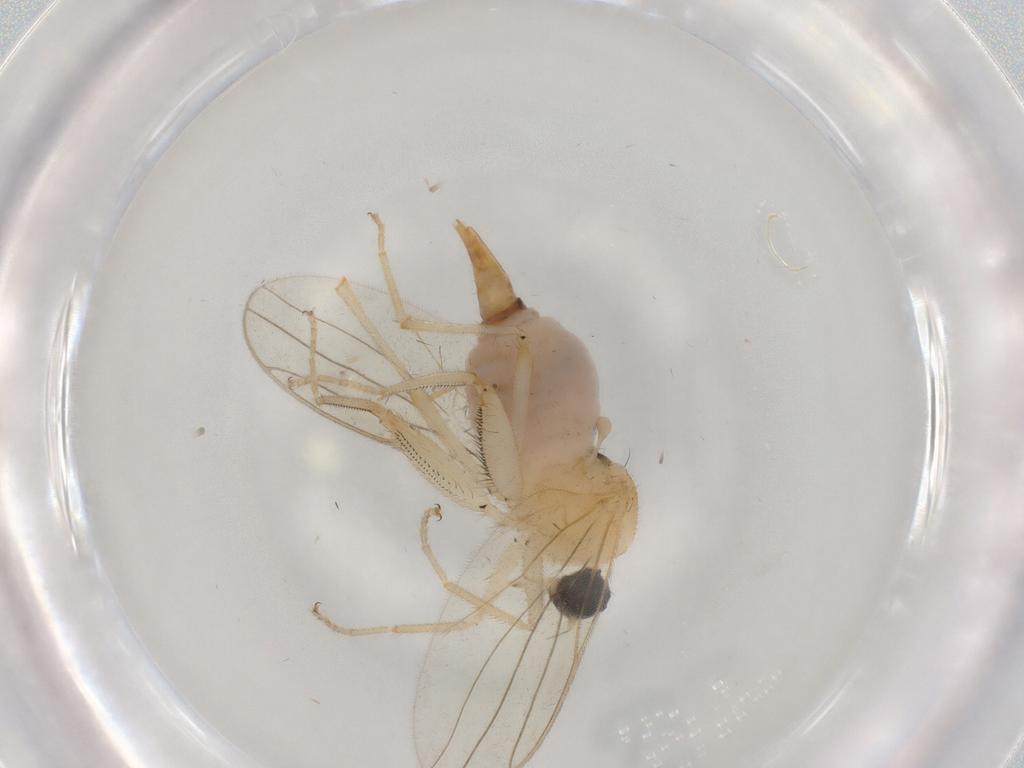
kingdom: Animalia
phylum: Arthropoda
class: Insecta
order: Diptera
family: Hybotidae
